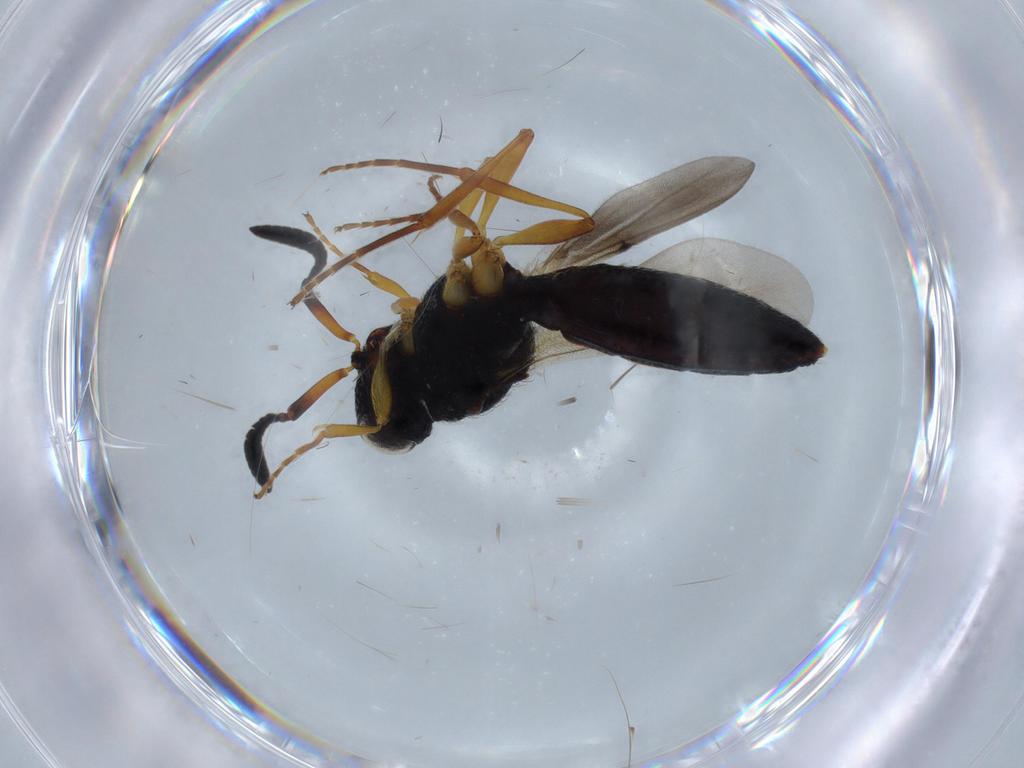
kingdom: Animalia
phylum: Arthropoda
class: Insecta
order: Hymenoptera
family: Scelionidae
